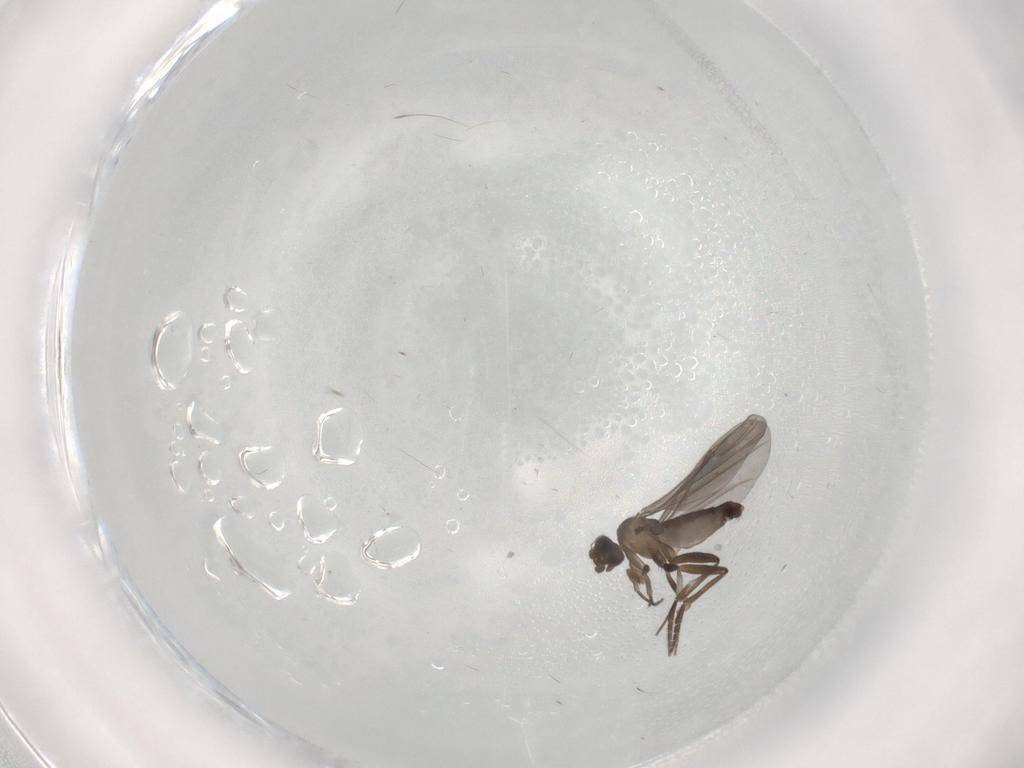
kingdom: Animalia
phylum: Arthropoda
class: Insecta
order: Diptera
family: Phoridae
